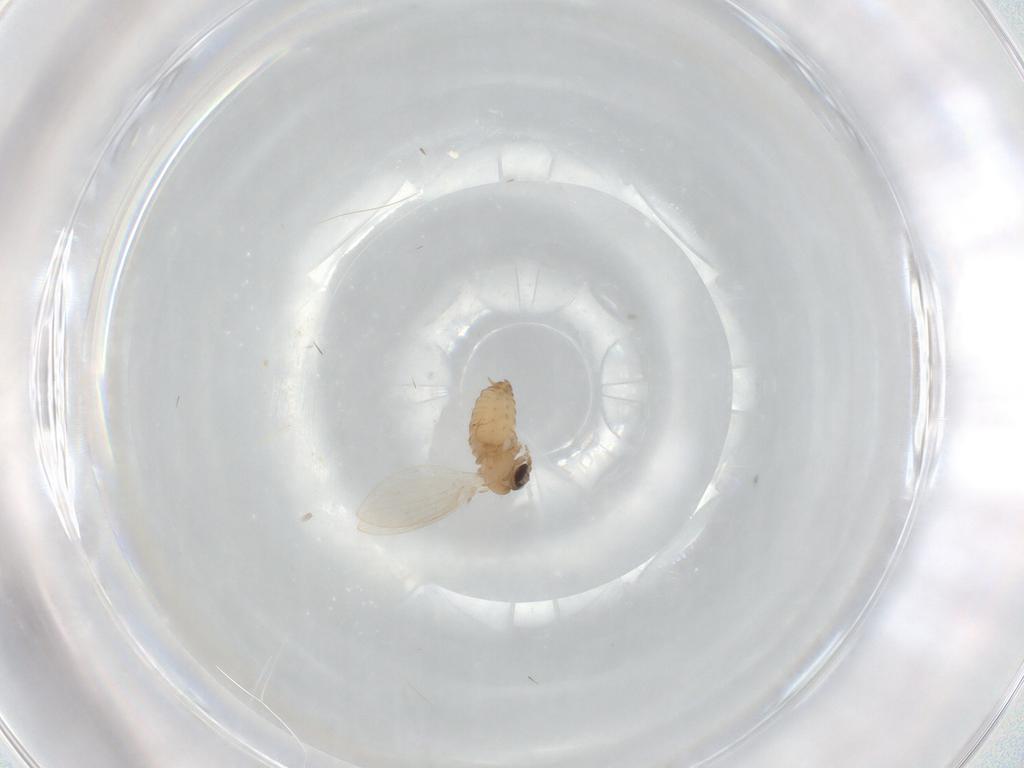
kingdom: Animalia
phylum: Arthropoda
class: Insecta
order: Diptera
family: Psychodidae
